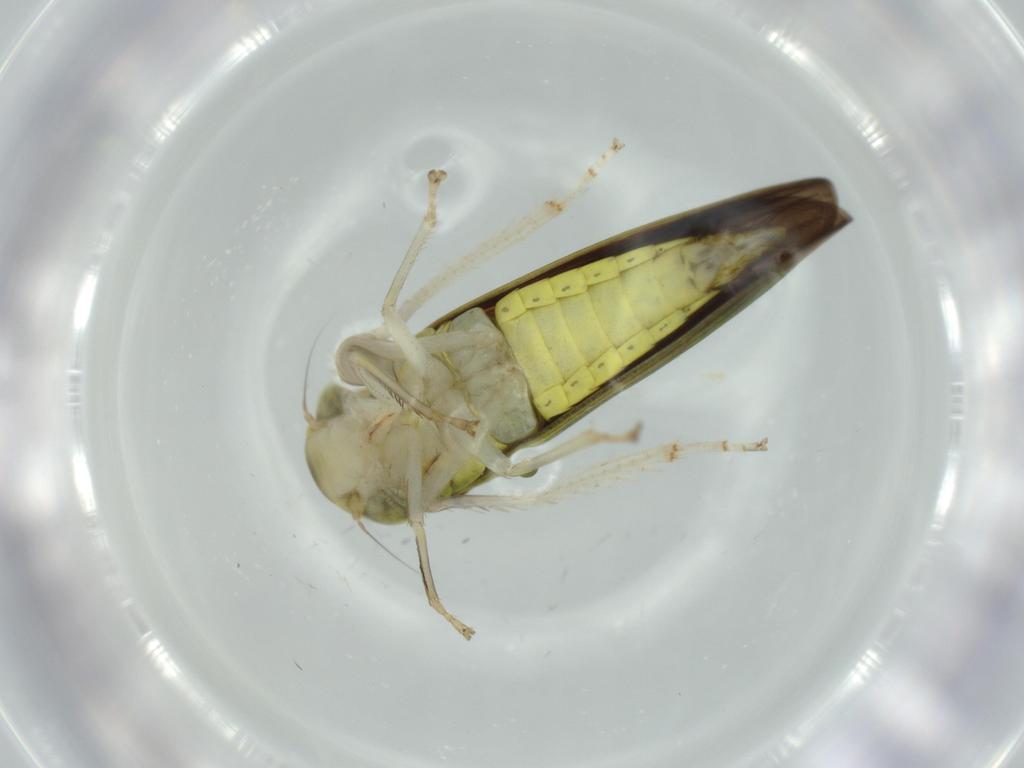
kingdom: Animalia
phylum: Arthropoda
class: Insecta
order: Hemiptera
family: Cicadellidae
